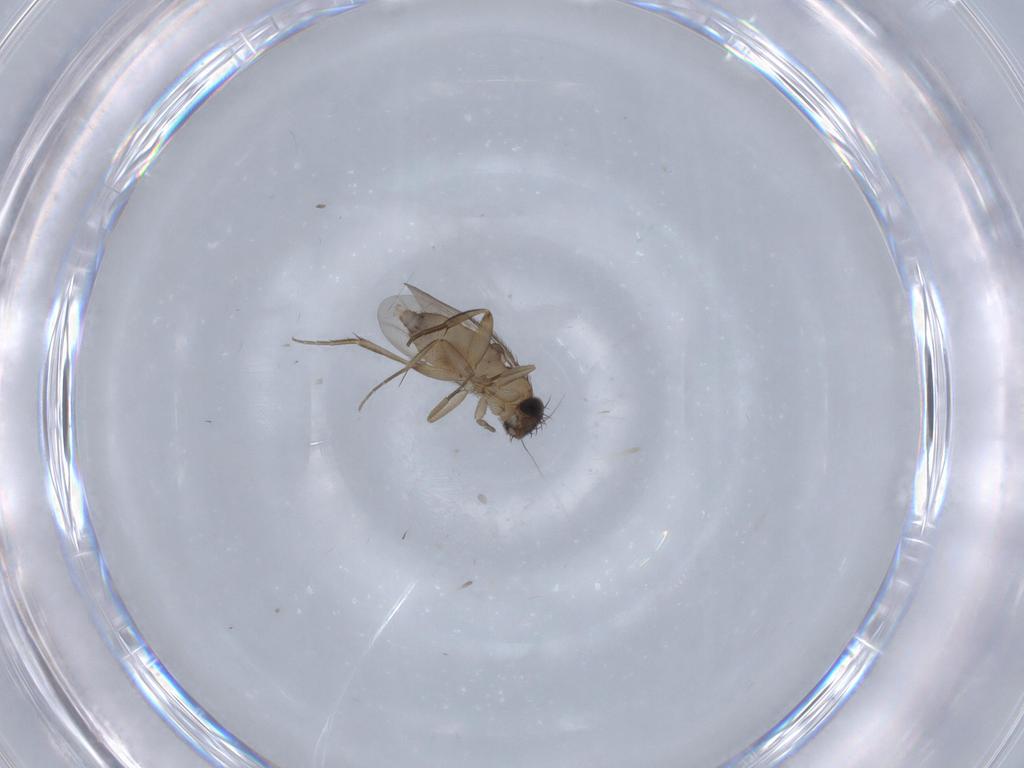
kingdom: Animalia
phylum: Arthropoda
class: Insecta
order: Diptera
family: Phoridae
